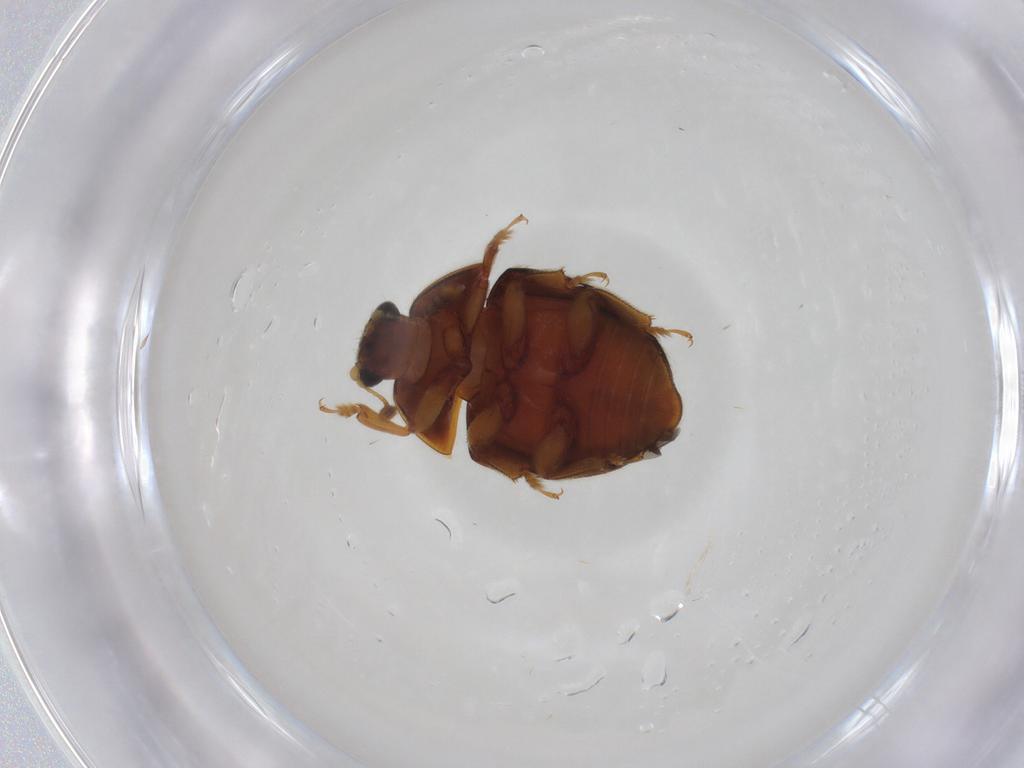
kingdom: Animalia
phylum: Arthropoda
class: Insecta
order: Coleoptera
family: Nitidulidae
